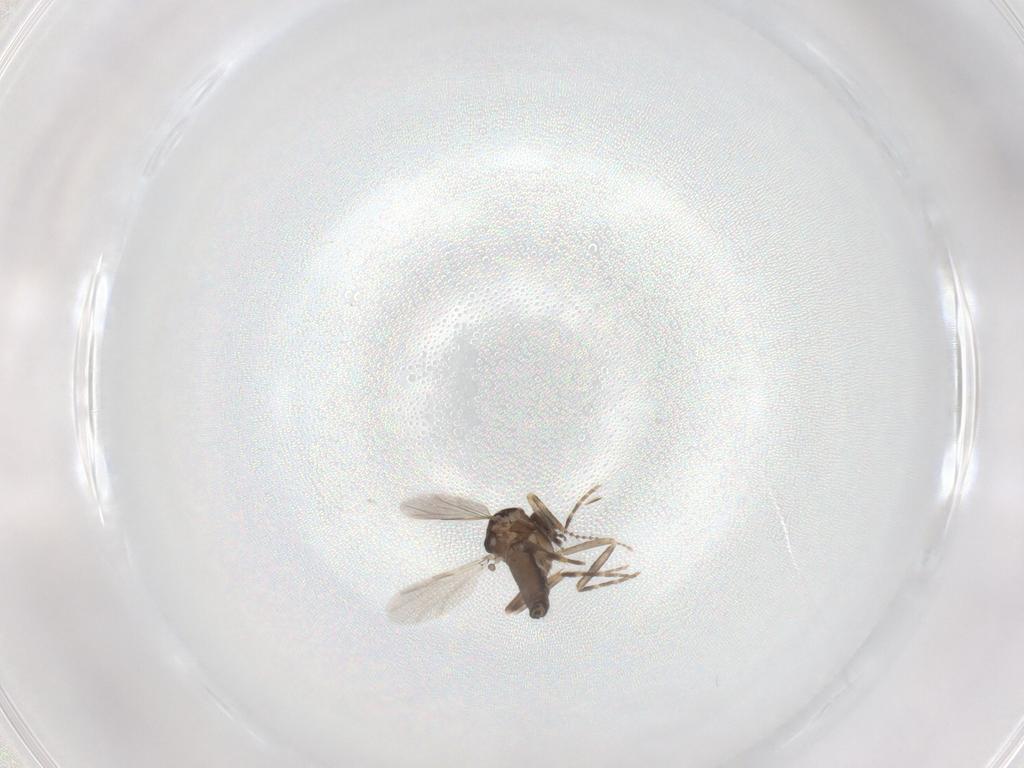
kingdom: Animalia
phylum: Arthropoda
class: Insecta
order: Diptera
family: Ceratopogonidae
